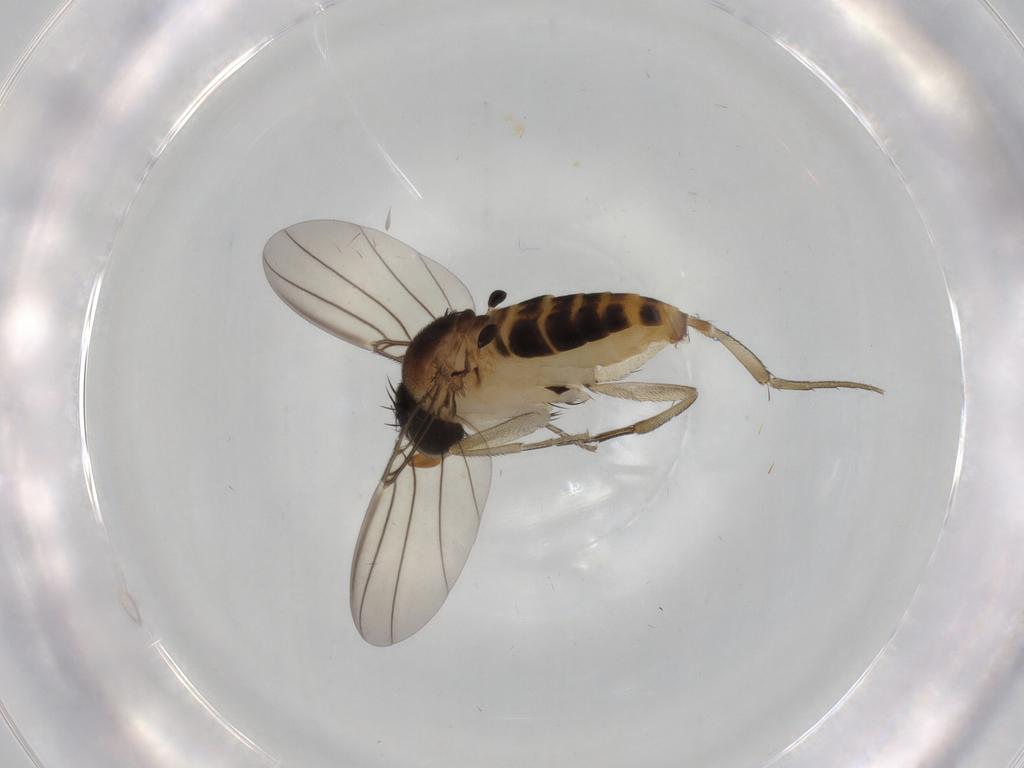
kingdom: Animalia
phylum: Arthropoda
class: Insecta
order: Diptera
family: Phoridae
